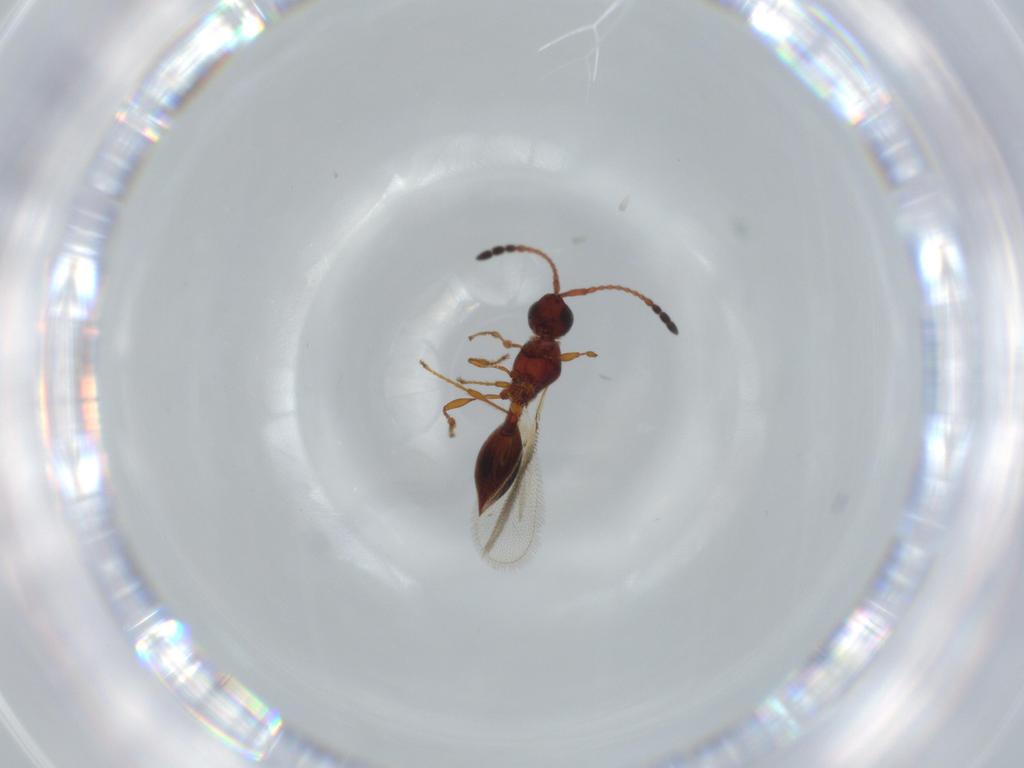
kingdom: Animalia
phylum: Arthropoda
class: Insecta
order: Hymenoptera
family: Diapriidae
